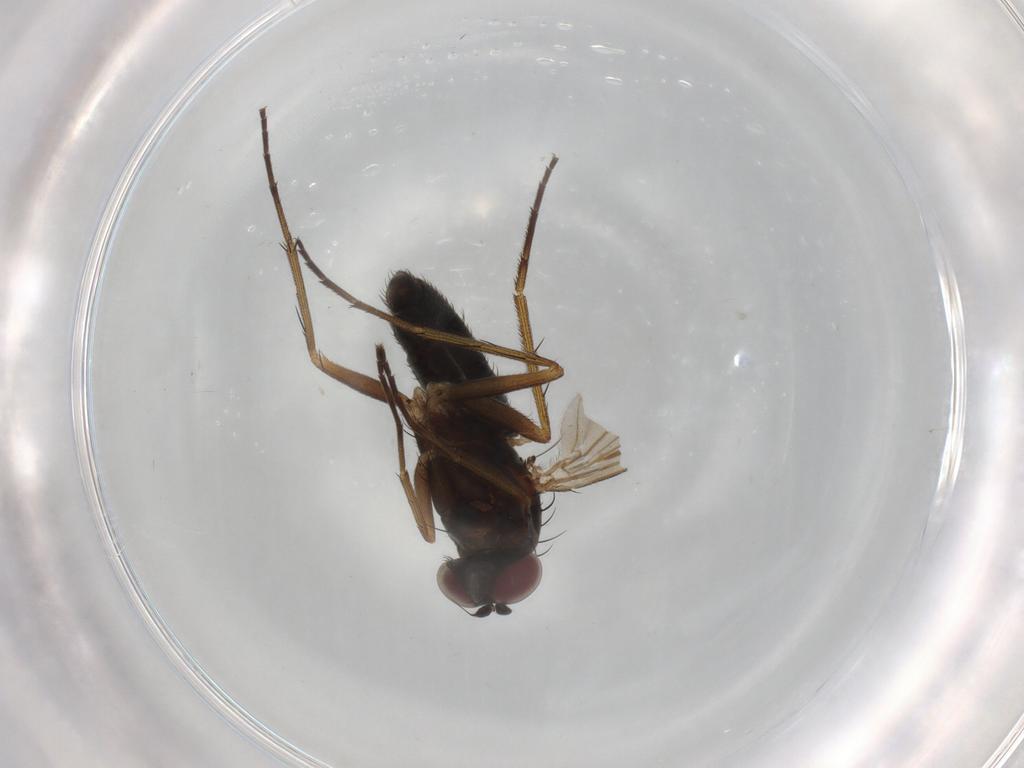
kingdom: Animalia
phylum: Arthropoda
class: Insecta
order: Diptera
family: Dolichopodidae
